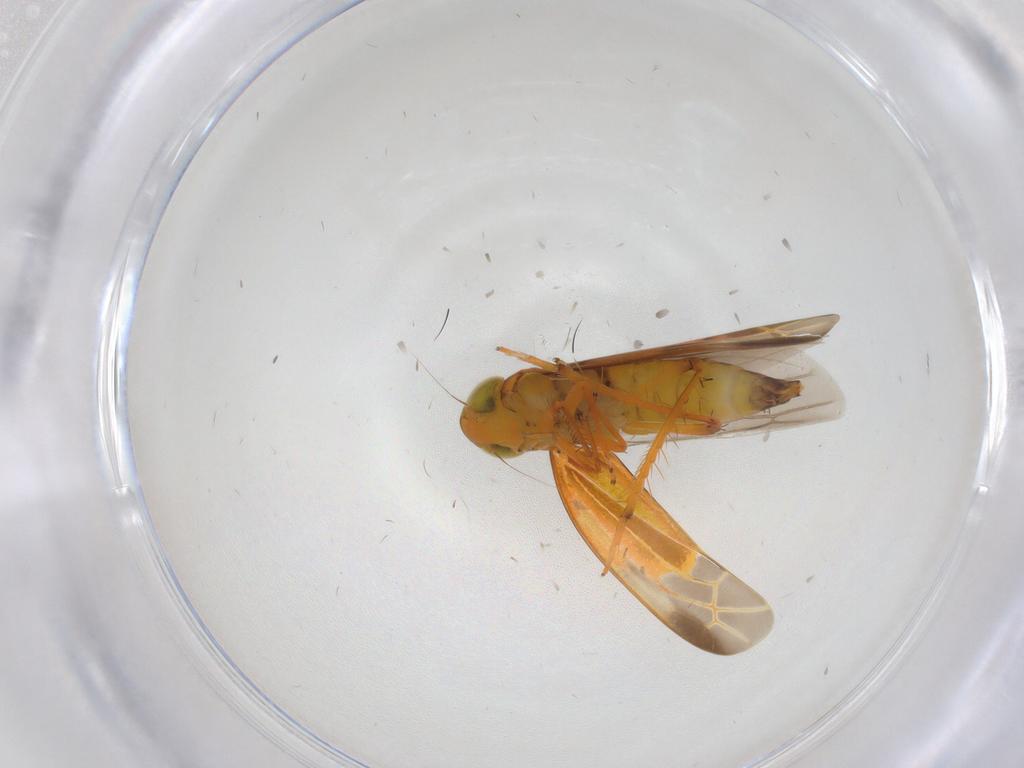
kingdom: Animalia
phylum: Arthropoda
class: Insecta
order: Hemiptera
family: Cicadellidae
